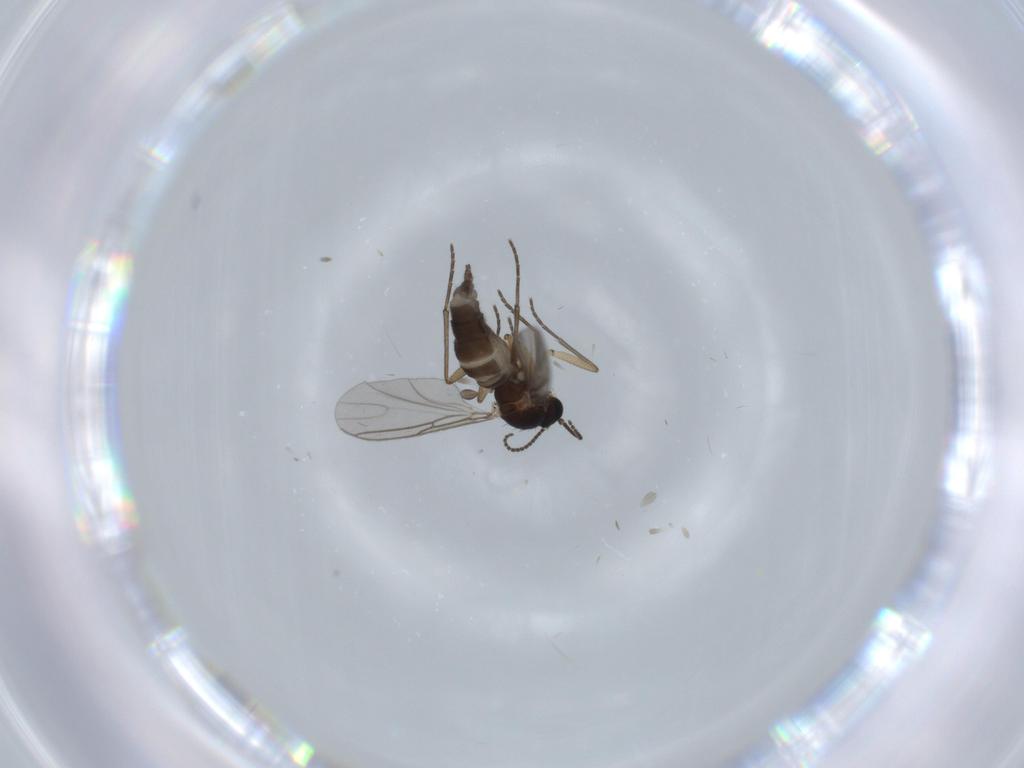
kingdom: Animalia
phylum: Arthropoda
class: Insecta
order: Diptera
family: Sciaridae
